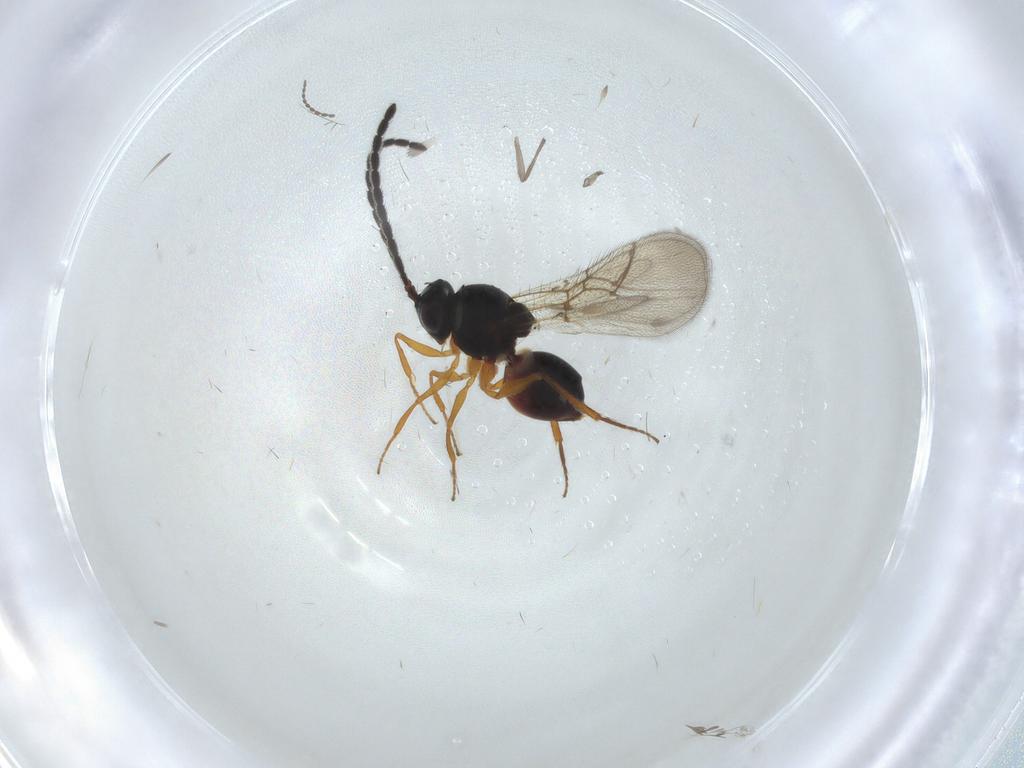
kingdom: Animalia
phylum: Arthropoda
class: Insecta
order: Hymenoptera
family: Figitidae
